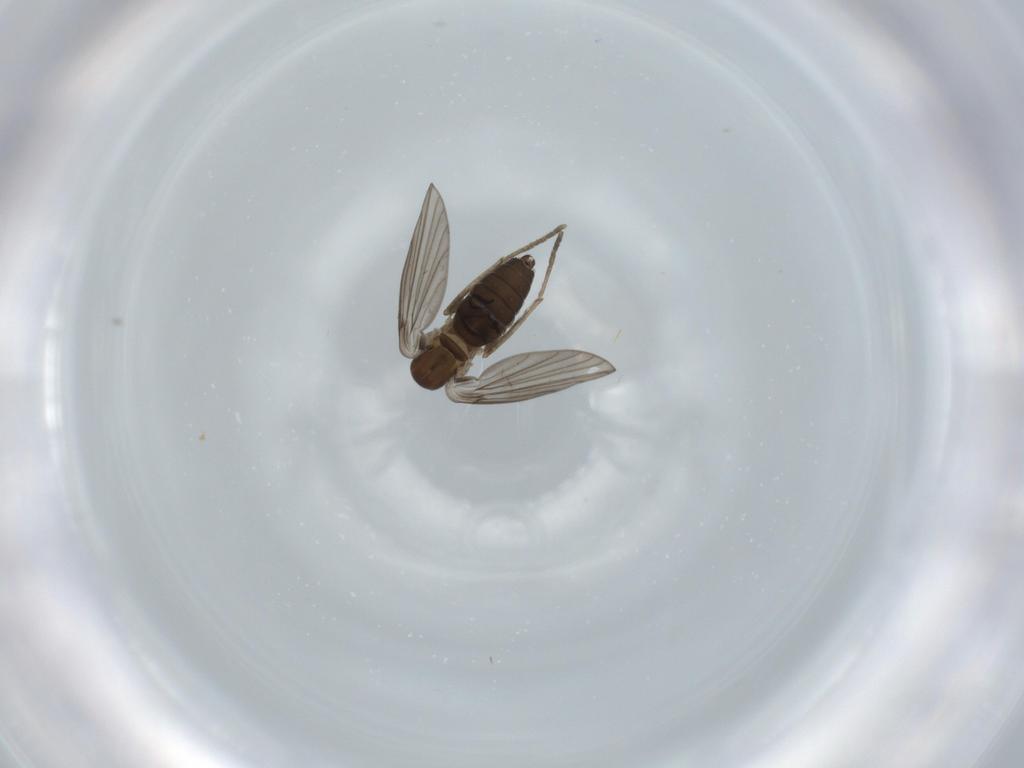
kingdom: Animalia
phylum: Arthropoda
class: Insecta
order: Diptera
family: Psychodidae
